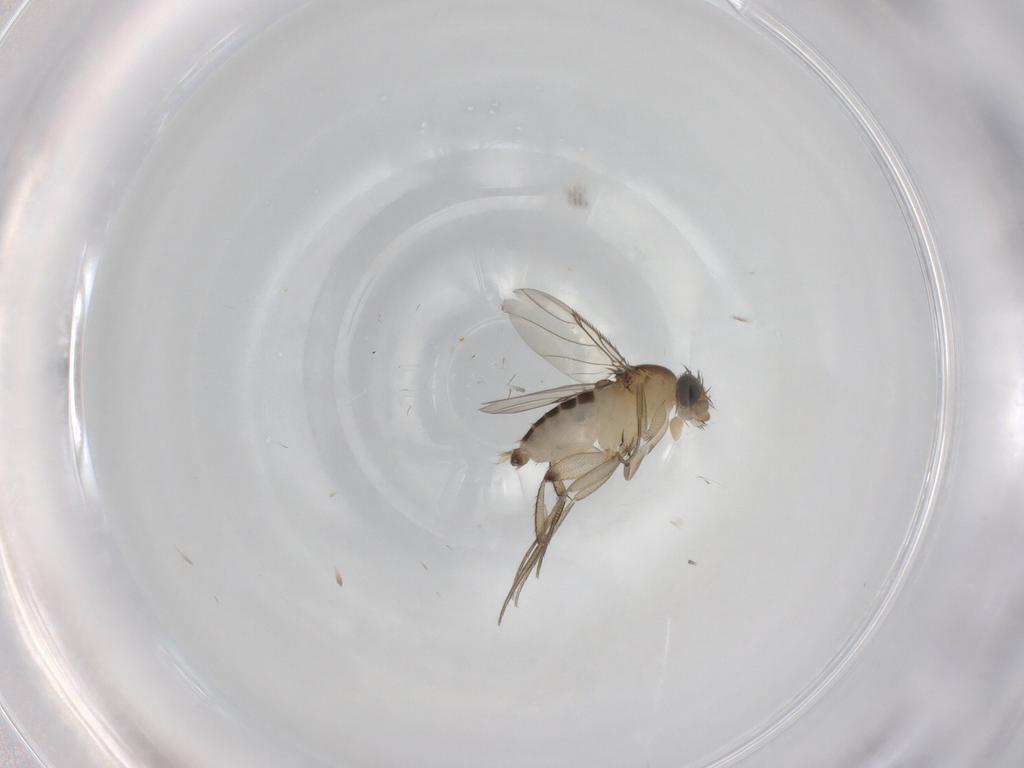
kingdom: Animalia
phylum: Arthropoda
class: Insecta
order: Diptera
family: Phoridae
